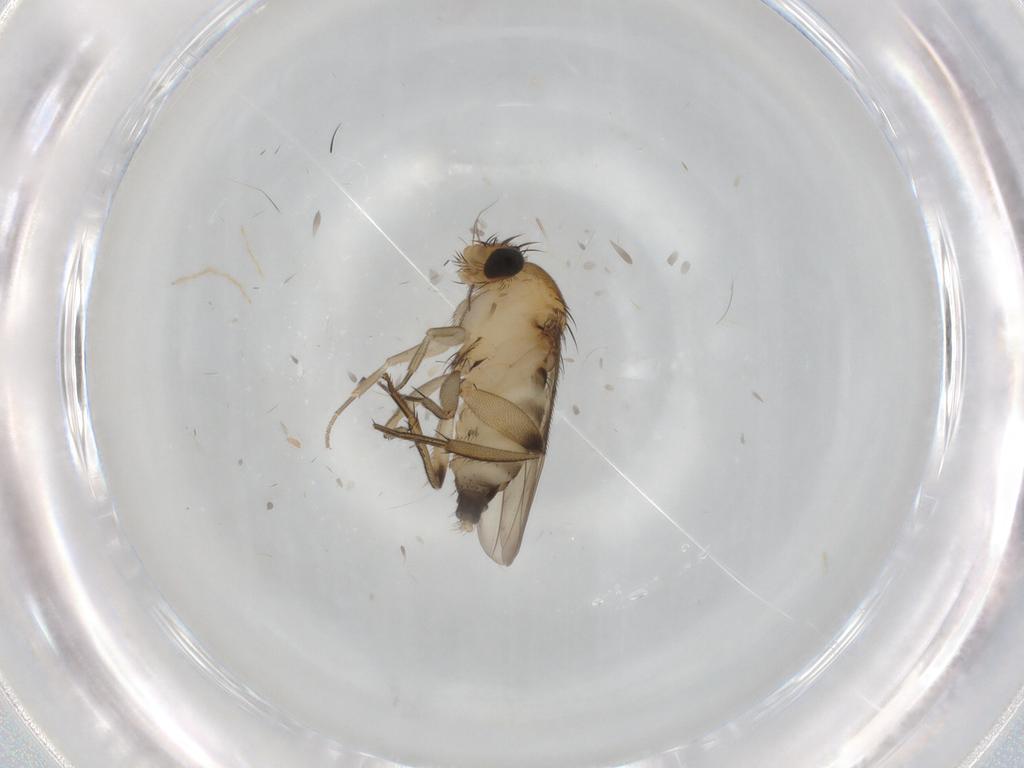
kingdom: Animalia
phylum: Arthropoda
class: Insecta
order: Diptera
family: Phoridae
